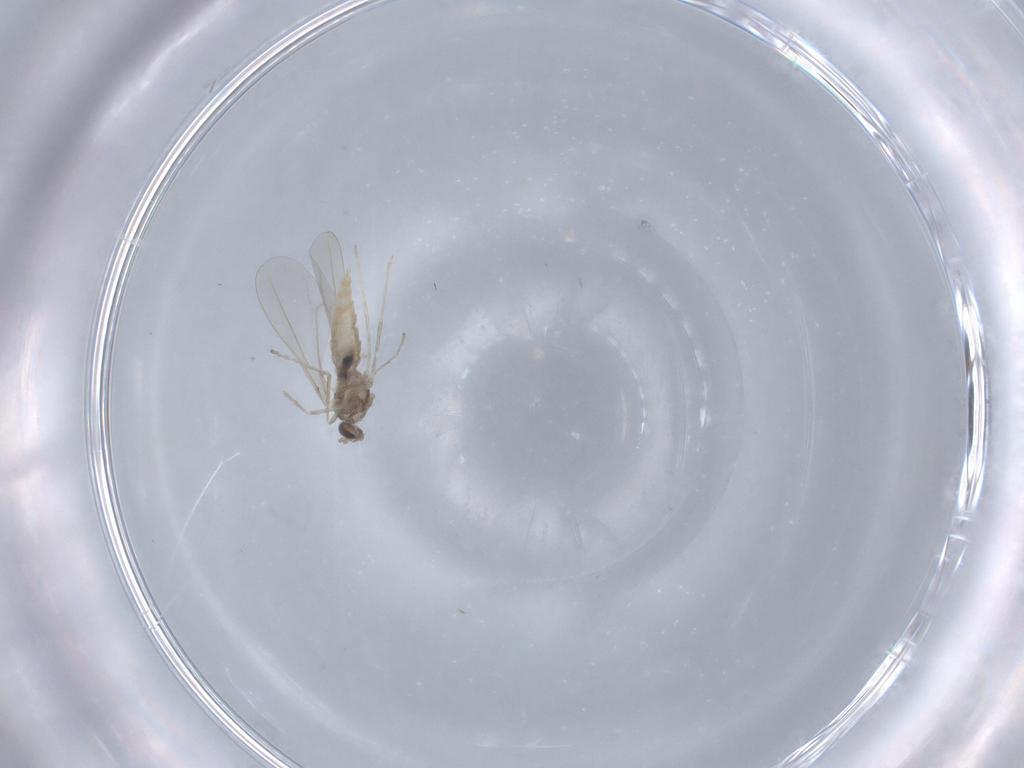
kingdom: Animalia
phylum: Arthropoda
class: Insecta
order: Diptera
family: Cecidomyiidae
